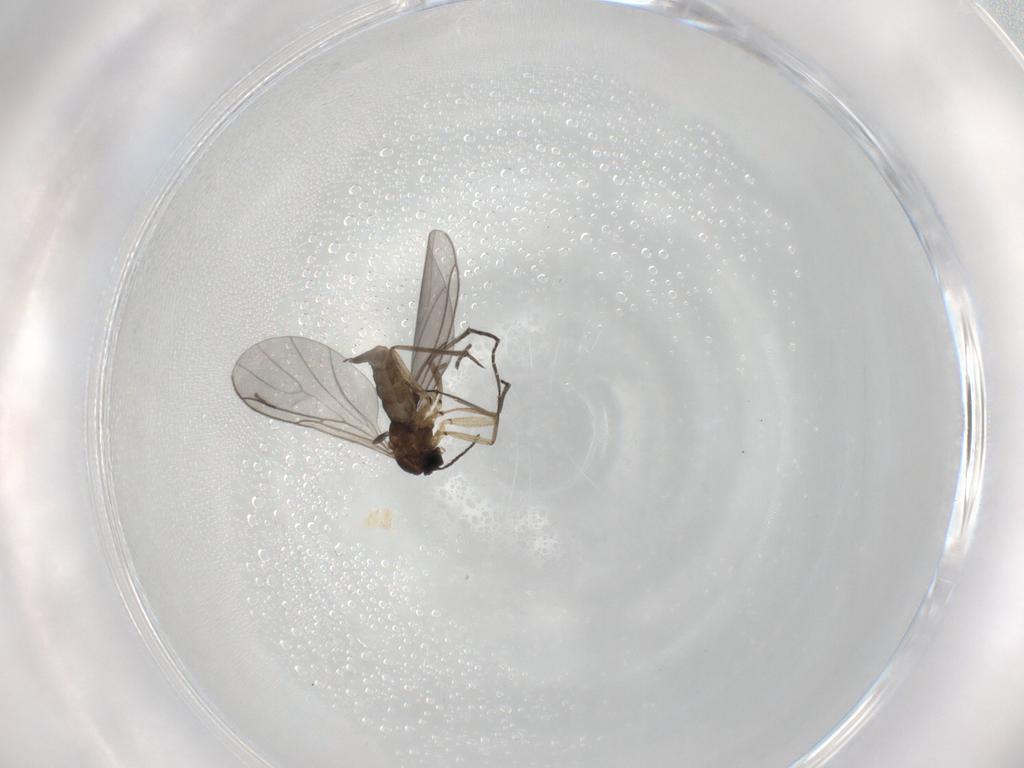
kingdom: Animalia
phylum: Arthropoda
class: Insecta
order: Diptera
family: Sciaridae
